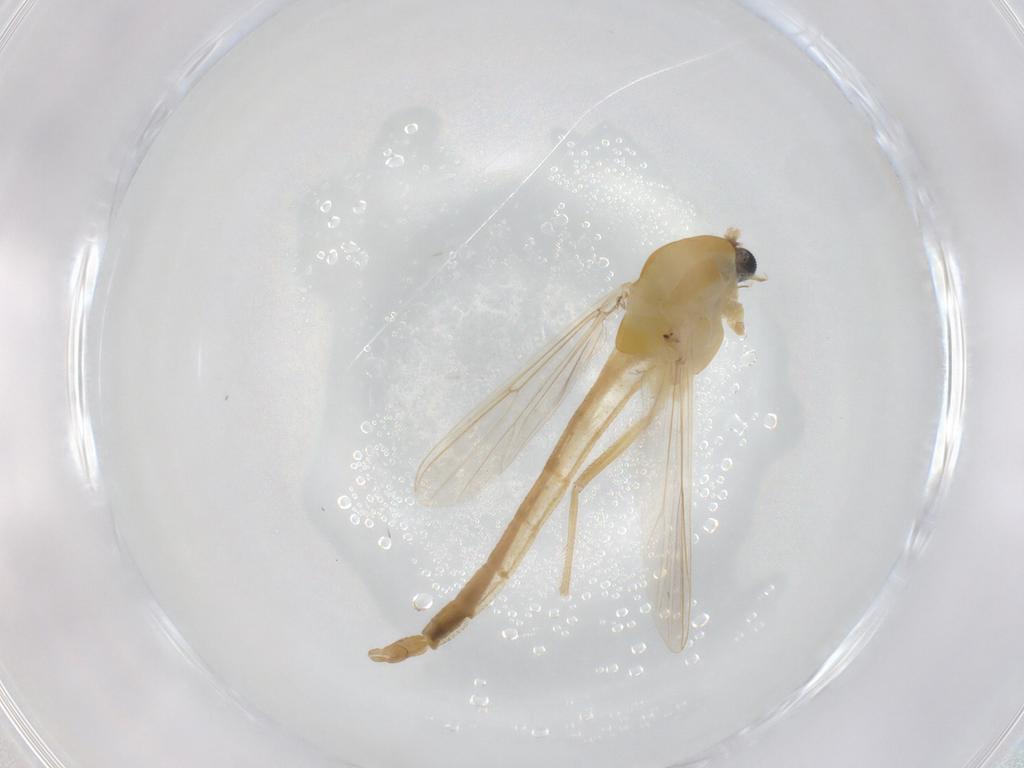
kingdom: Animalia
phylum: Arthropoda
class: Insecta
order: Diptera
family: Chironomidae
